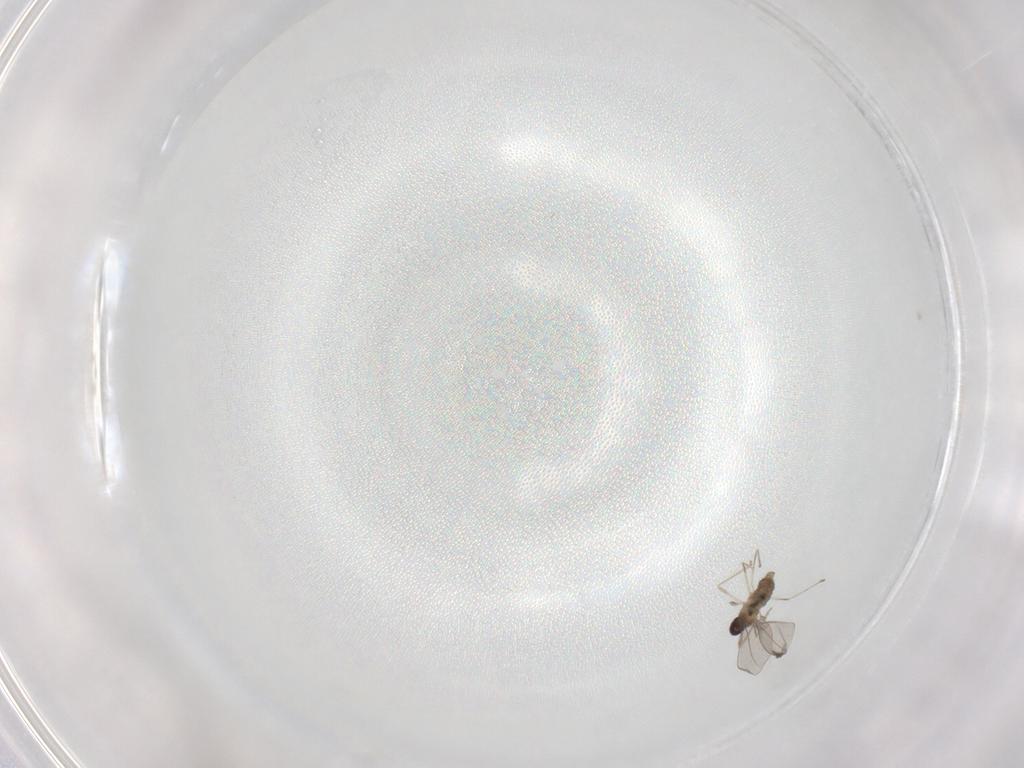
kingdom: Animalia
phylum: Arthropoda
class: Insecta
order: Diptera
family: Cecidomyiidae
